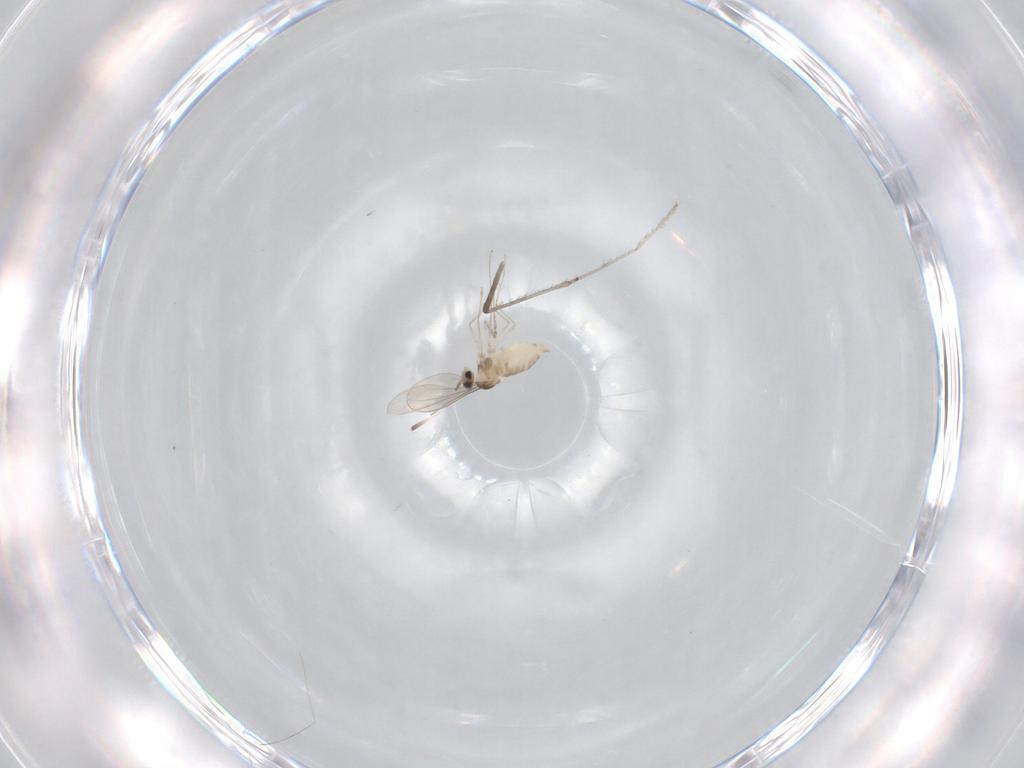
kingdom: Animalia
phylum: Arthropoda
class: Insecta
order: Diptera
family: Cecidomyiidae
